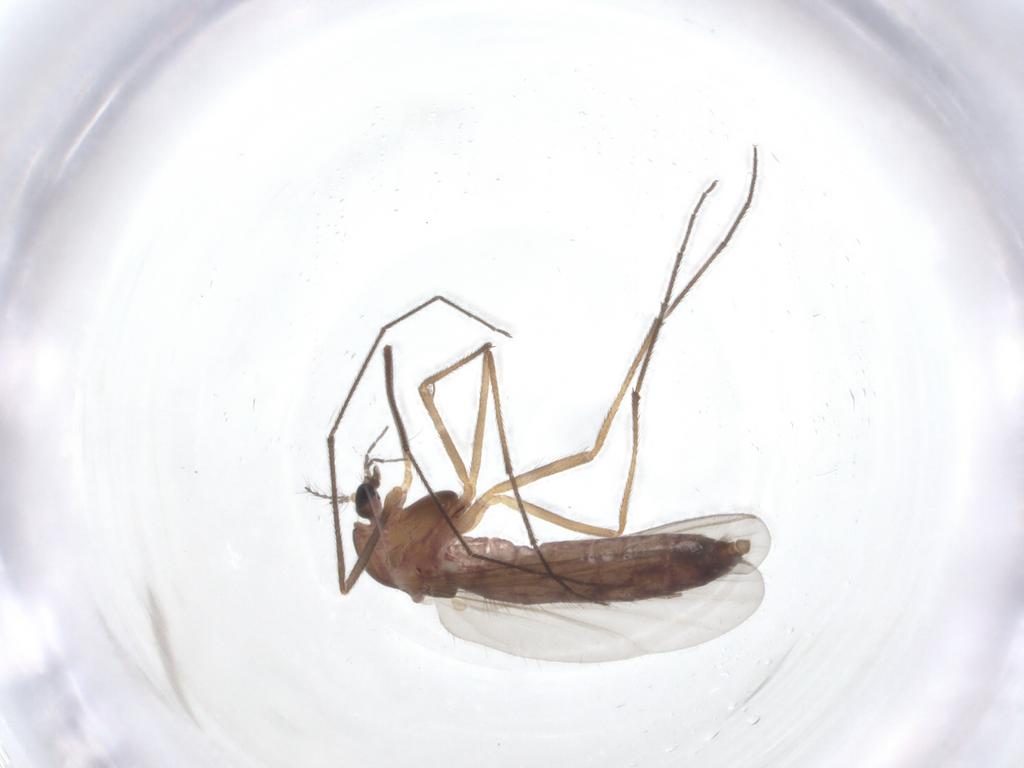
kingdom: Animalia
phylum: Arthropoda
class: Insecta
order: Diptera
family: Chironomidae
